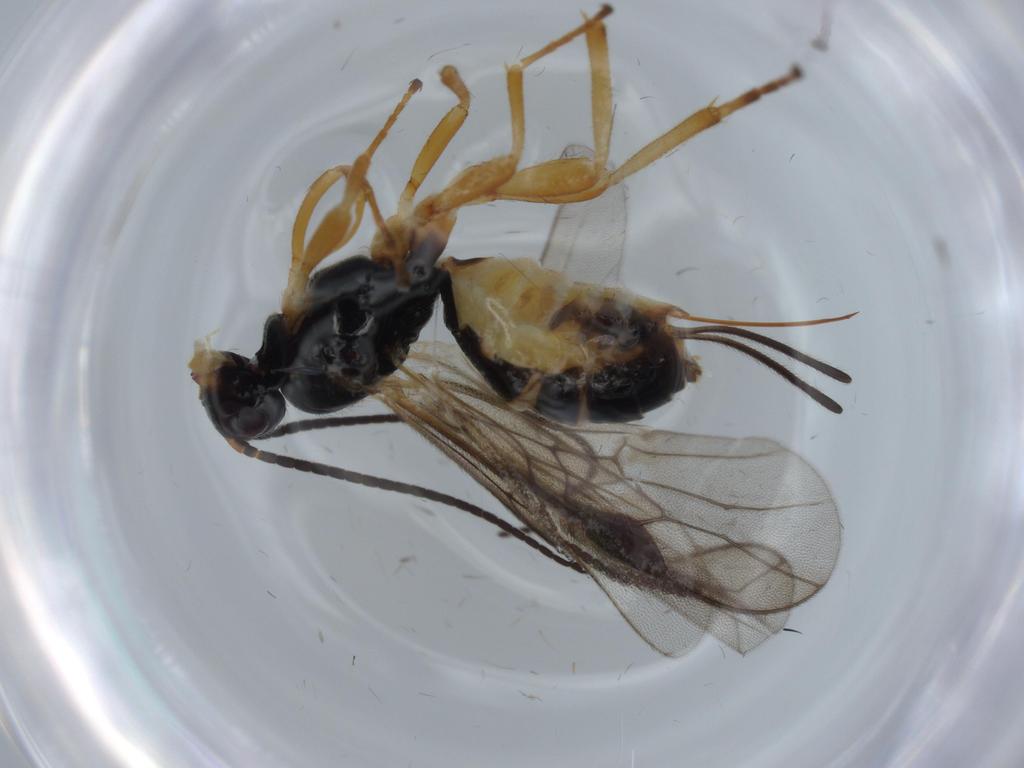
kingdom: Animalia
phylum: Arthropoda
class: Insecta
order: Hymenoptera
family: Braconidae
